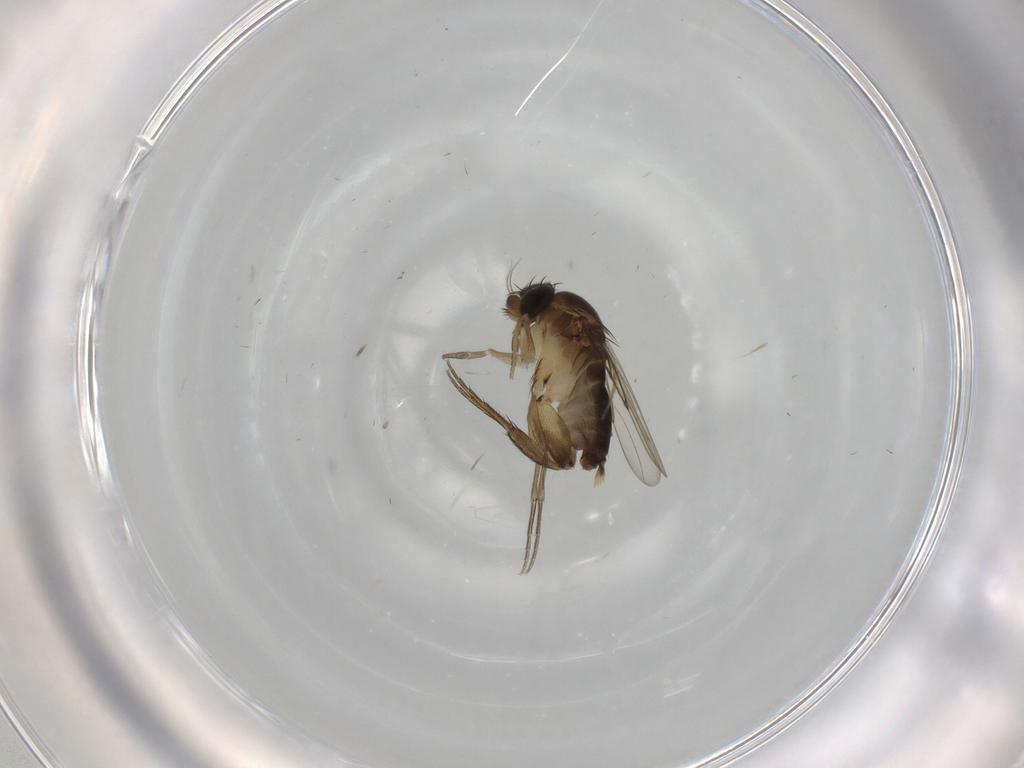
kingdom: Animalia
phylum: Arthropoda
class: Insecta
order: Diptera
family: Phoridae
